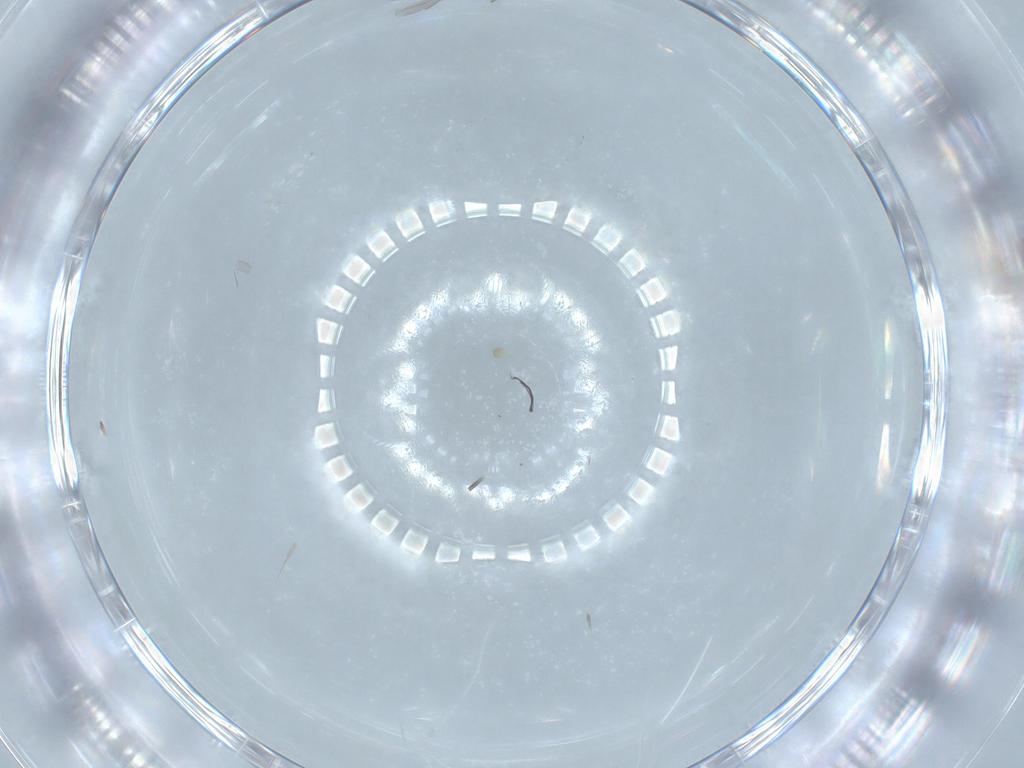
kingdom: Animalia
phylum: Arthropoda
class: Insecta
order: Diptera
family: Cecidomyiidae
